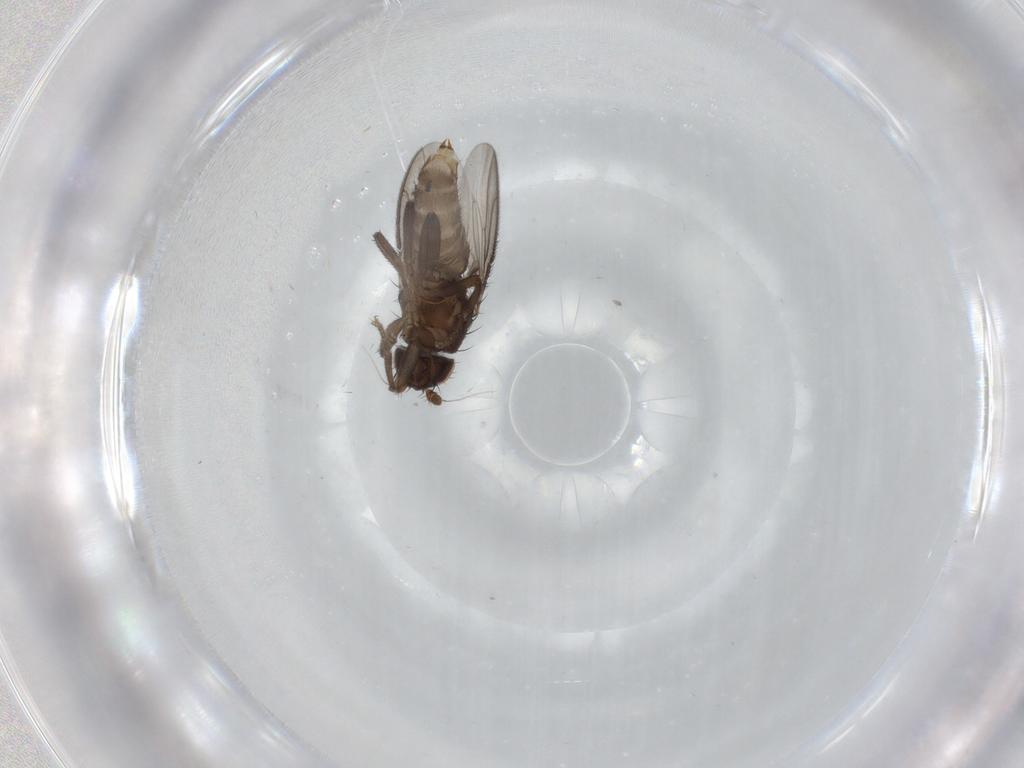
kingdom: Animalia
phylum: Arthropoda
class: Insecta
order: Diptera
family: Sphaeroceridae
